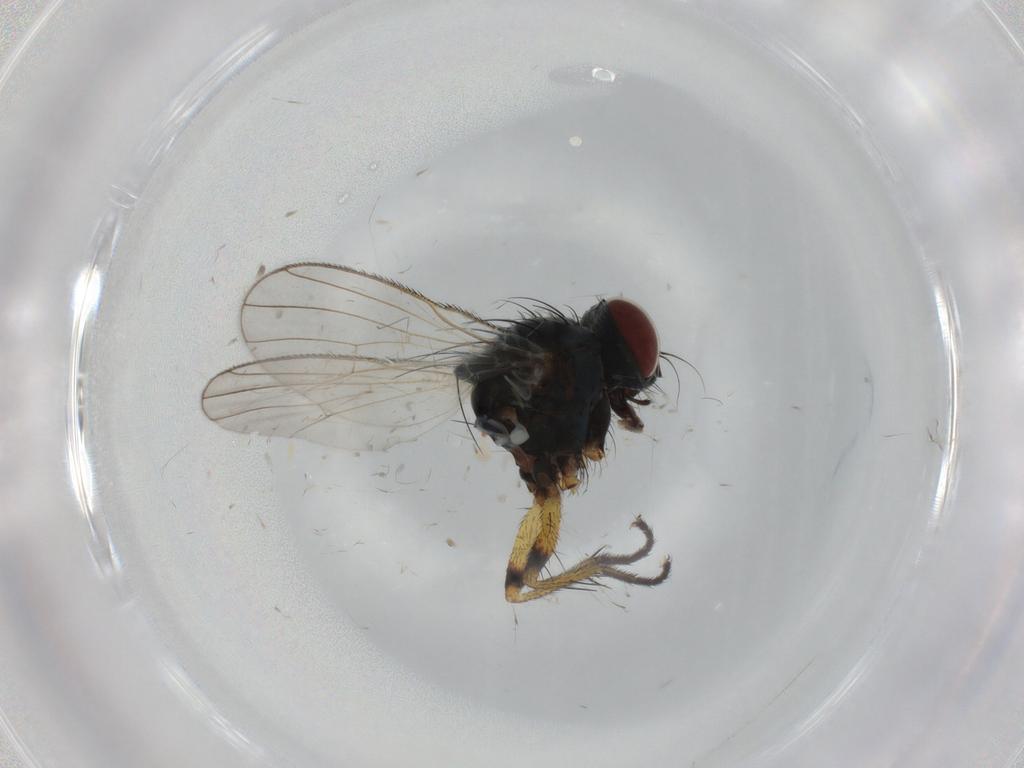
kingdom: Animalia
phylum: Arthropoda
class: Insecta
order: Diptera
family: Muscidae
